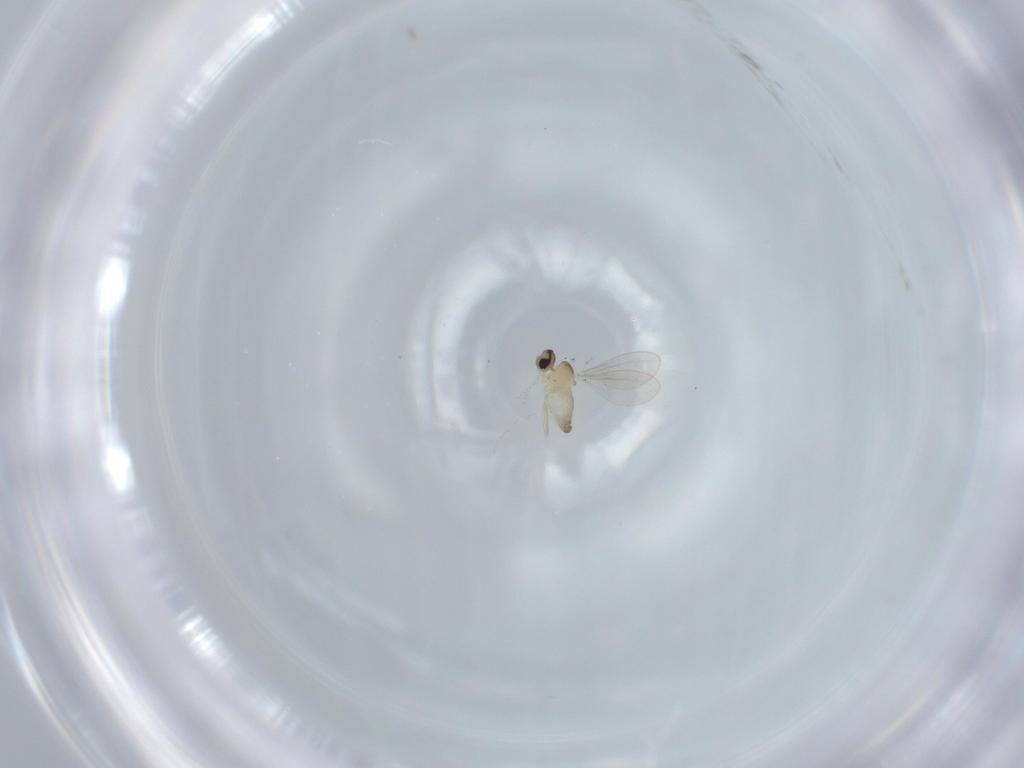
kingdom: Animalia
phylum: Arthropoda
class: Insecta
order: Diptera
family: Cecidomyiidae
